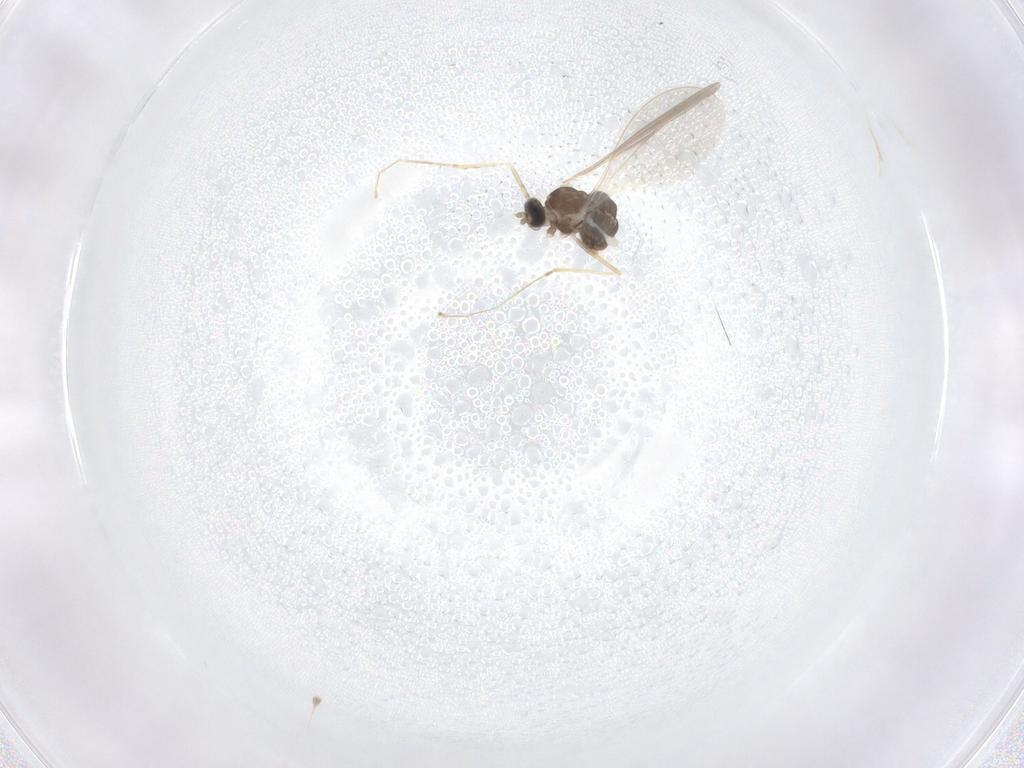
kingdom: Animalia
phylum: Arthropoda
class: Insecta
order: Diptera
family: Cecidomyiidae
